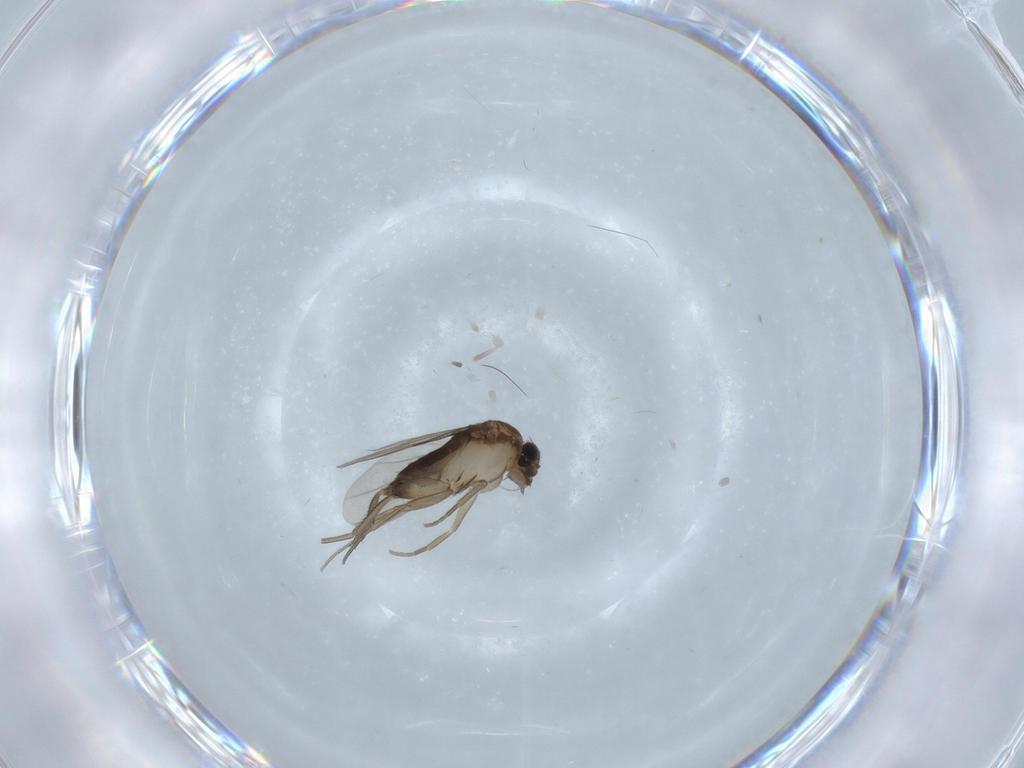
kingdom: Animalia
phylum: Arthropoda
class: Insecta
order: Diptera
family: Phoridae
